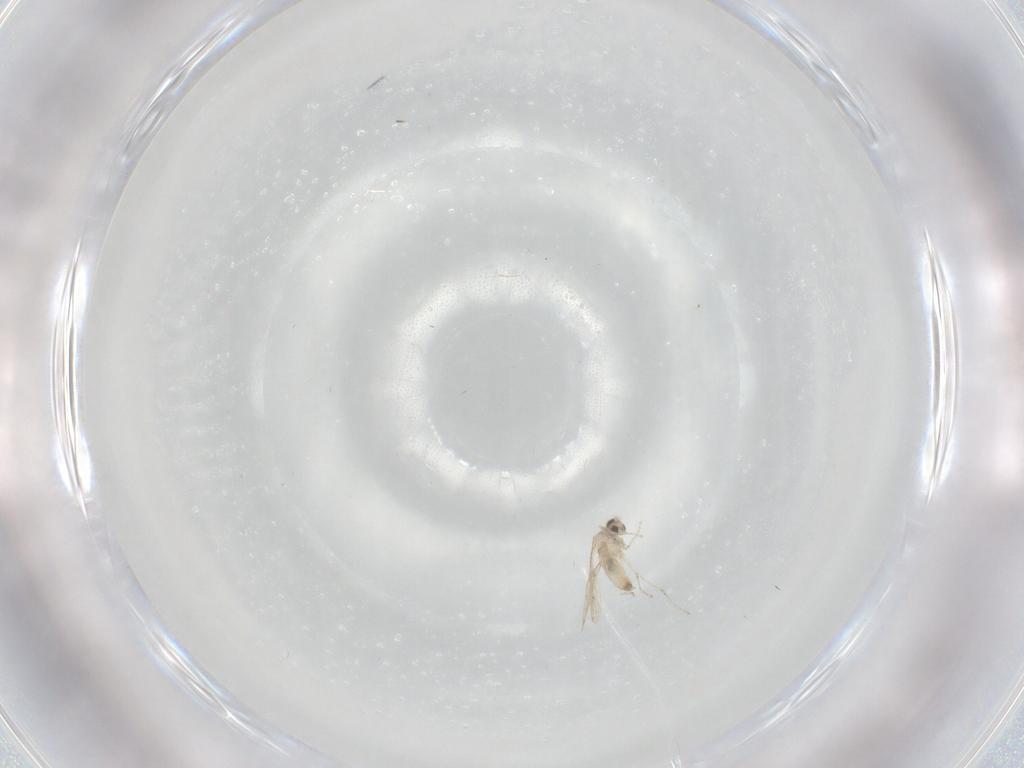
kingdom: Animalia
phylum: Arthropoda
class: Insecta
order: Diptera
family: Cecidomyiidae
